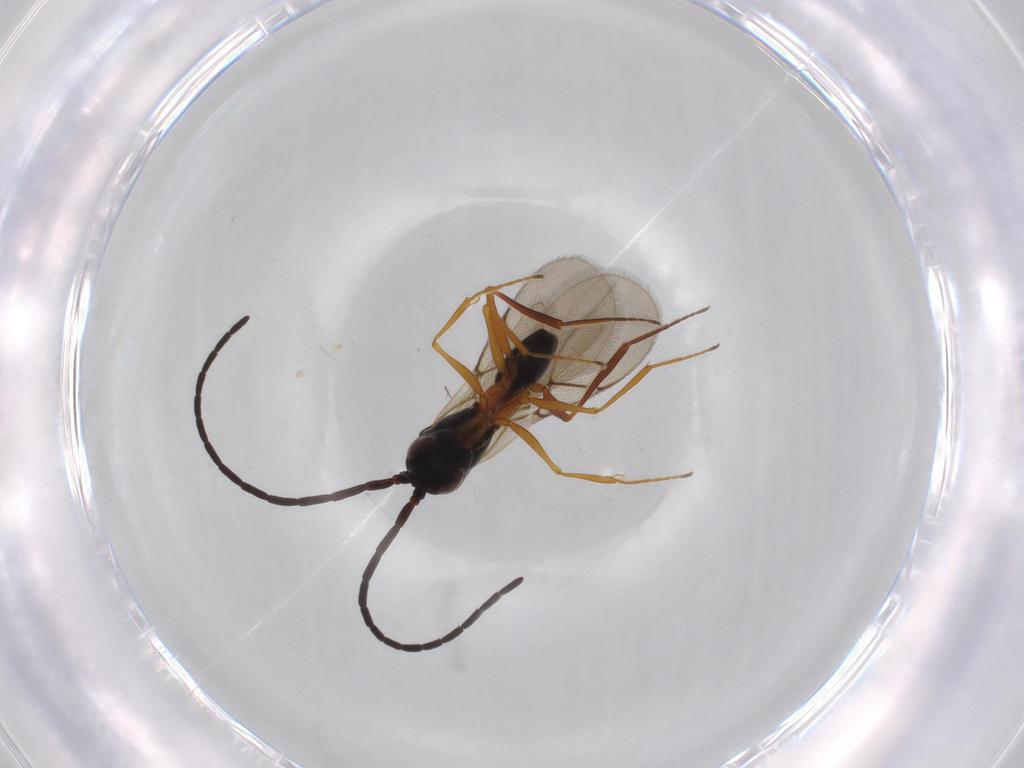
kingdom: Animalia
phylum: Arthropoda
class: Insecta
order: Hymenoptera
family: Figitidae
